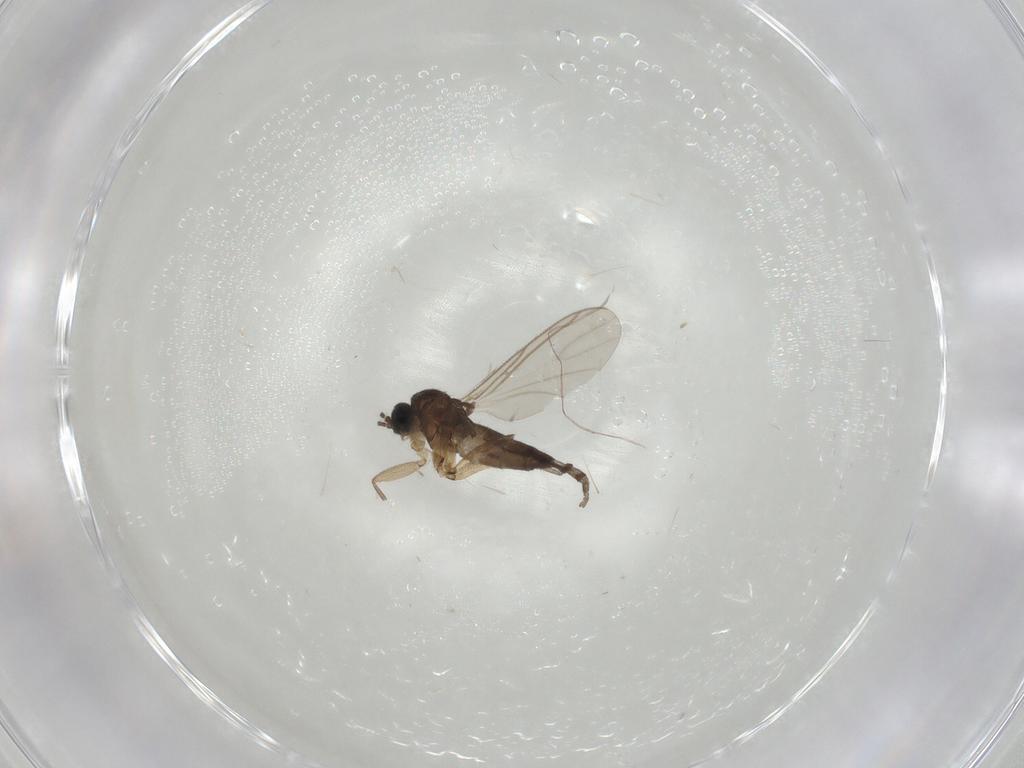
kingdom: Animalia
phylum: Arthropoda
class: Insecta
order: Diptera
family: Sciaridae
